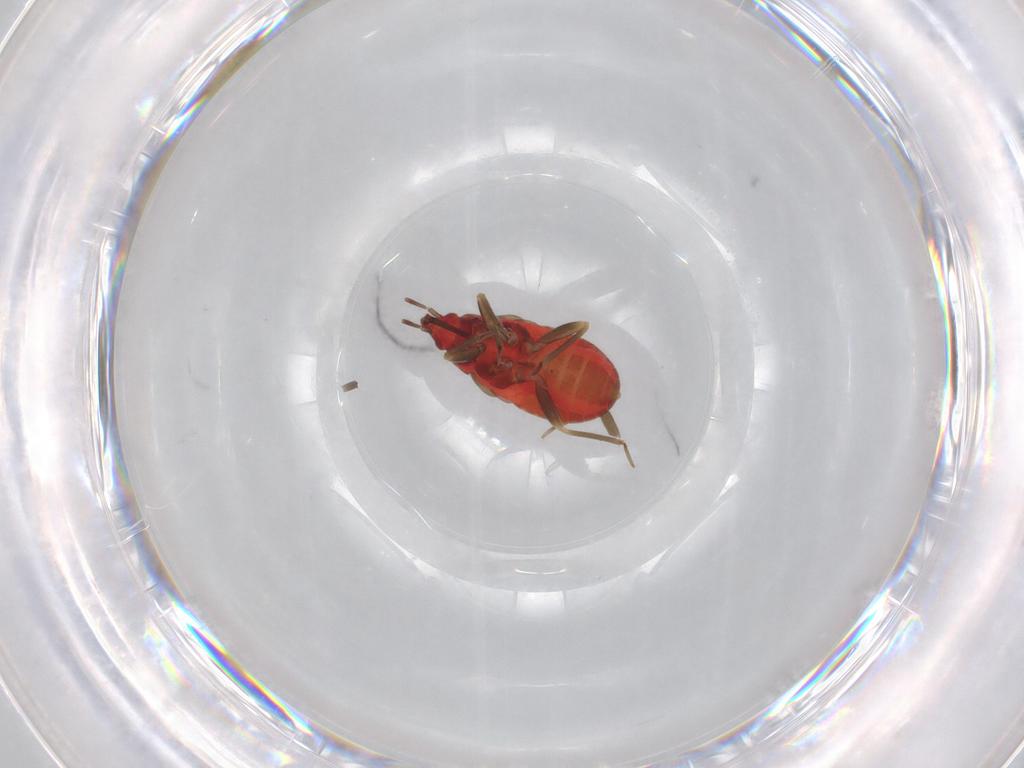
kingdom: Animalia
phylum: Arthropoda
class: Insecta
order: Hemiptera
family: Anthocoridae
